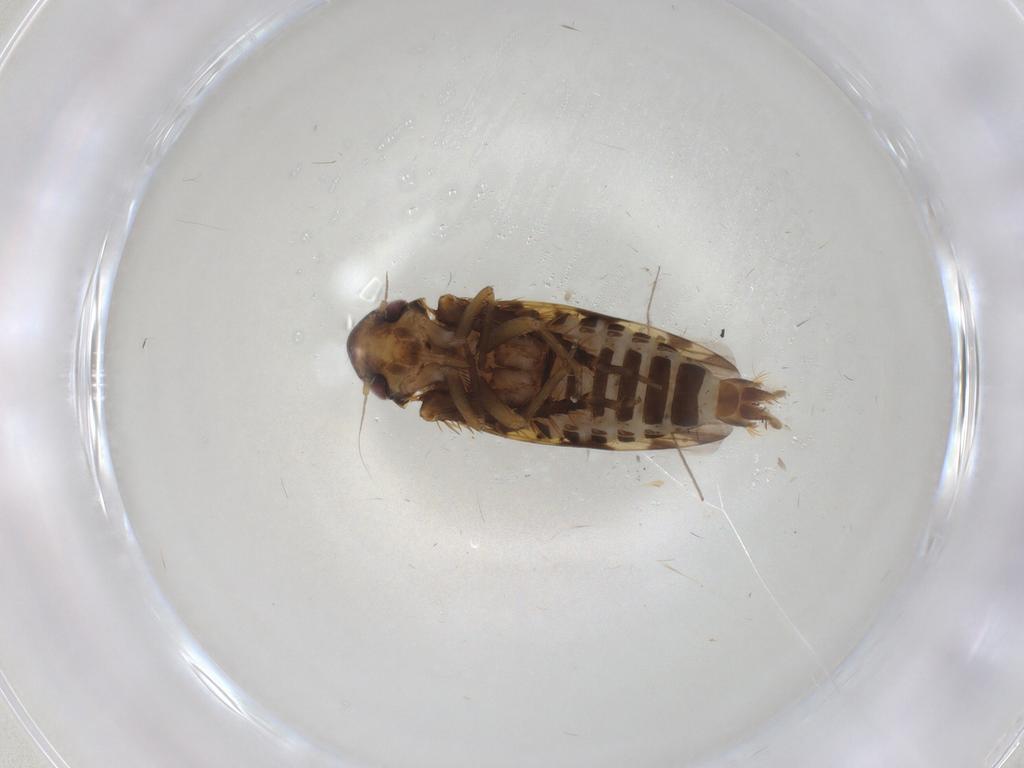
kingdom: Animalia
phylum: Arthropoda
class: Insecta
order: Hemiptera
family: Cicadellidae
